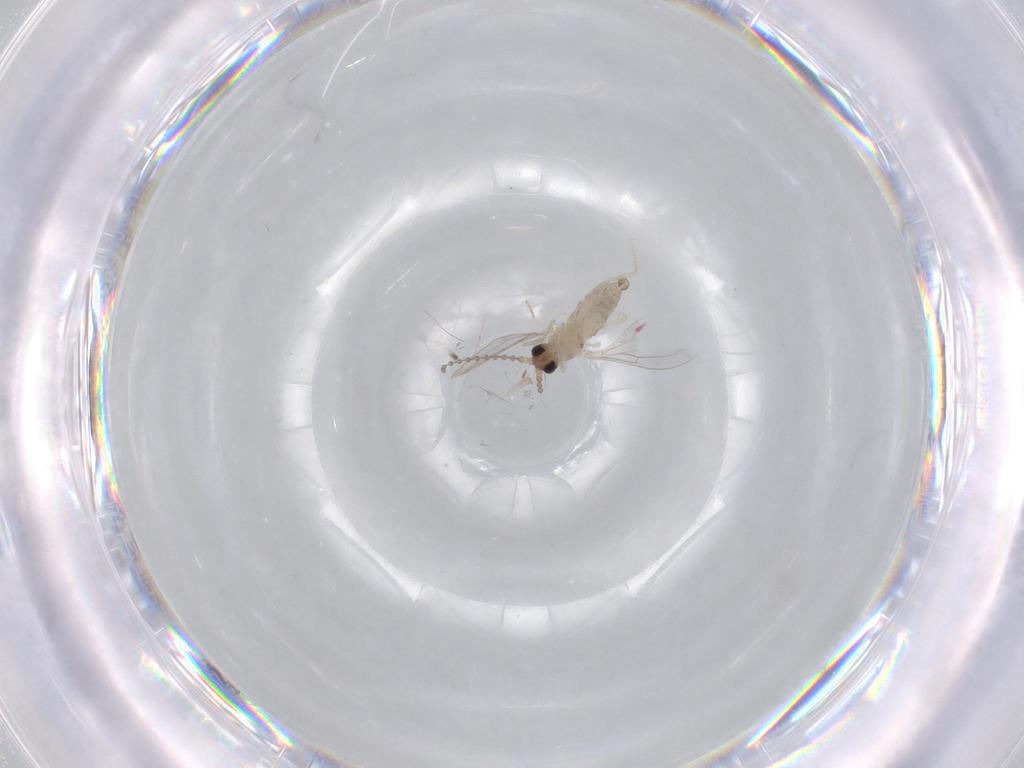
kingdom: Animalia
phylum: Arthropoda
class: Insecta
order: Diptera
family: Cecidomyiidae
